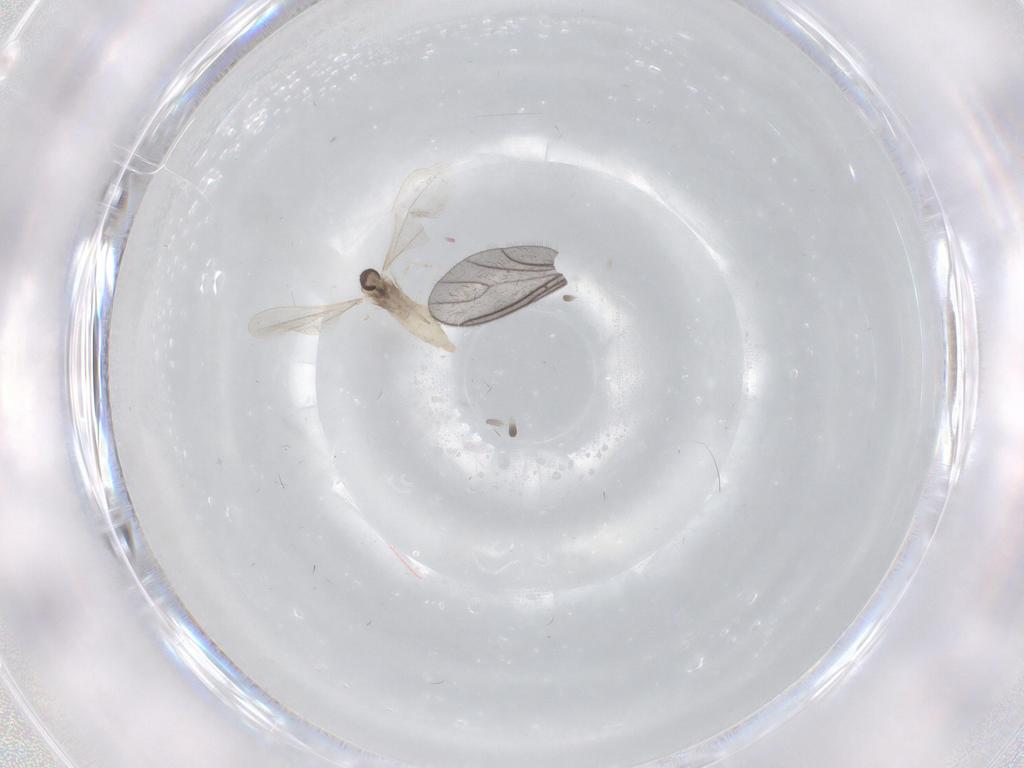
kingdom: Animalia
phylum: Arthropoda
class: Insecta
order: Diptera
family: Cecidomyiidae
